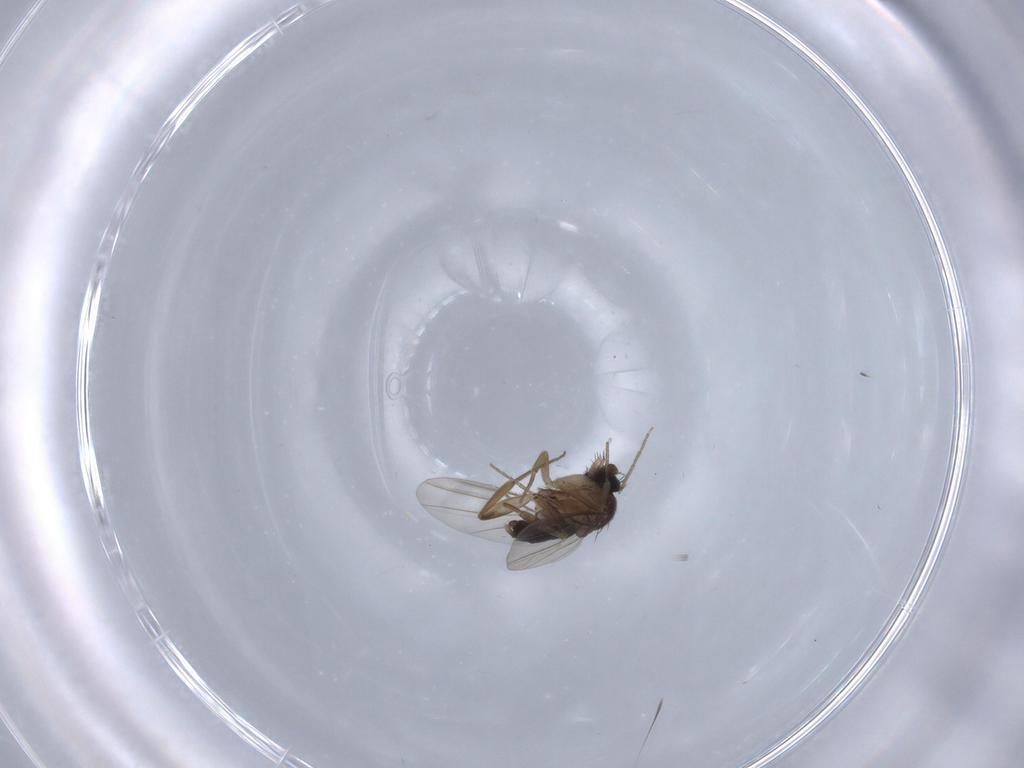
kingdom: Animalia
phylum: Arthropoda
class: Insecta
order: Diptera
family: Phoridae
